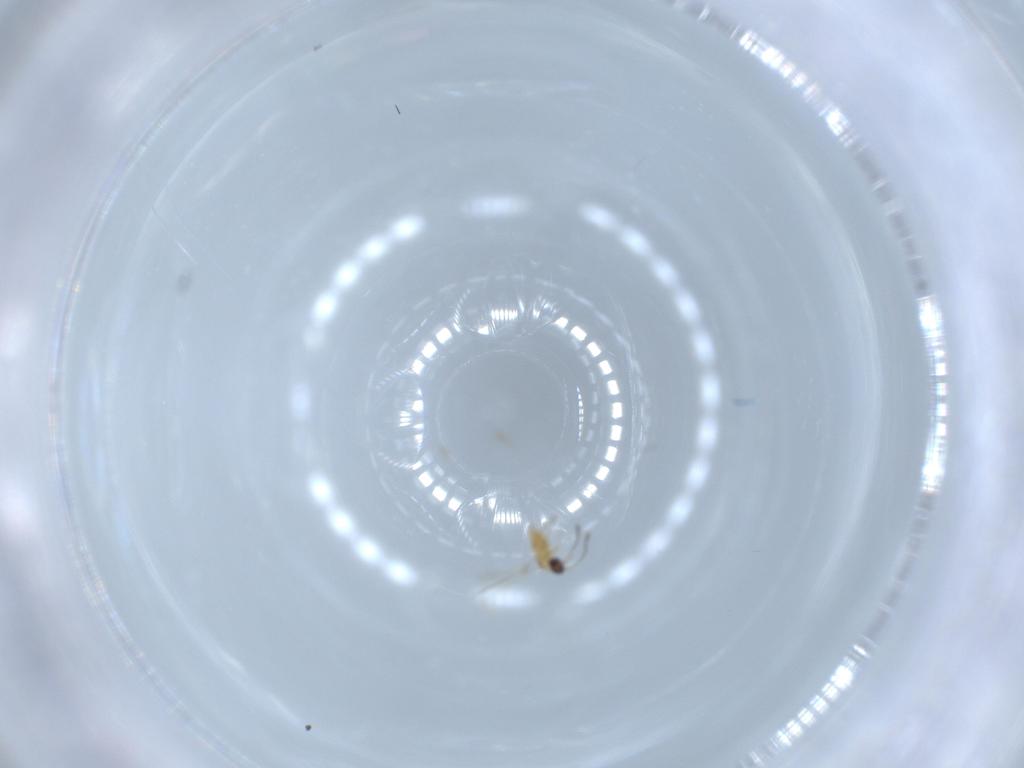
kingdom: Animalia
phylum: Arthropoda
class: Insecta
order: Hymenoptera
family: Mymaridae
